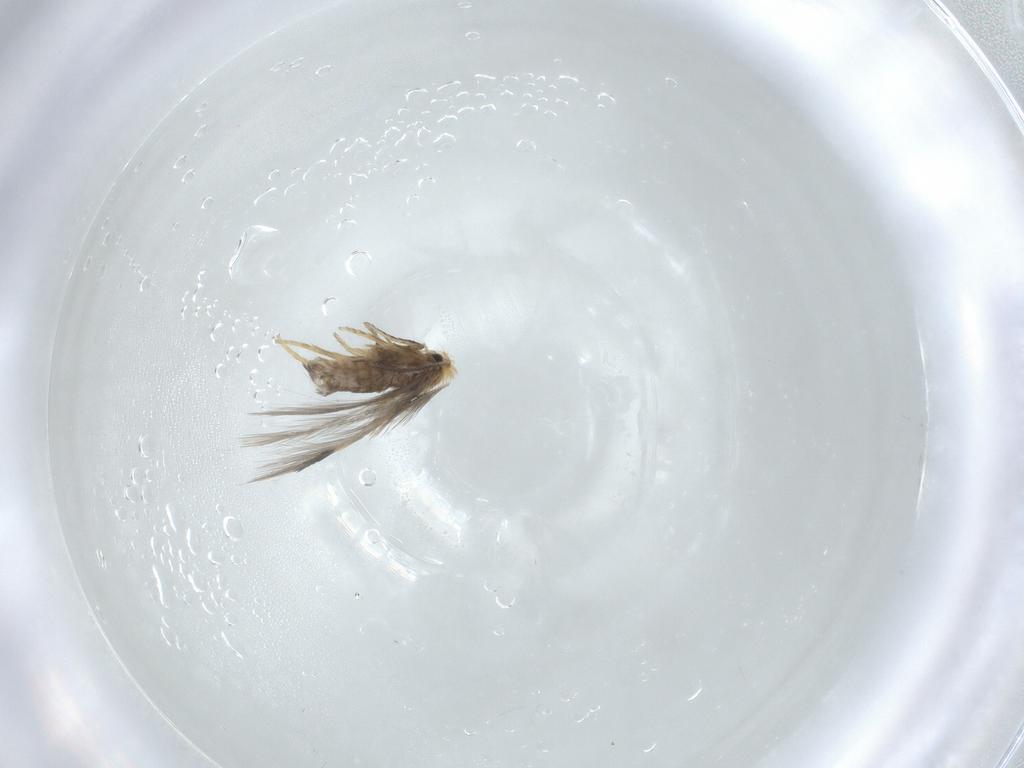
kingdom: Animalia
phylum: Arthropoda
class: Insecta
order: Lepidoptera
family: Nepticulidae
